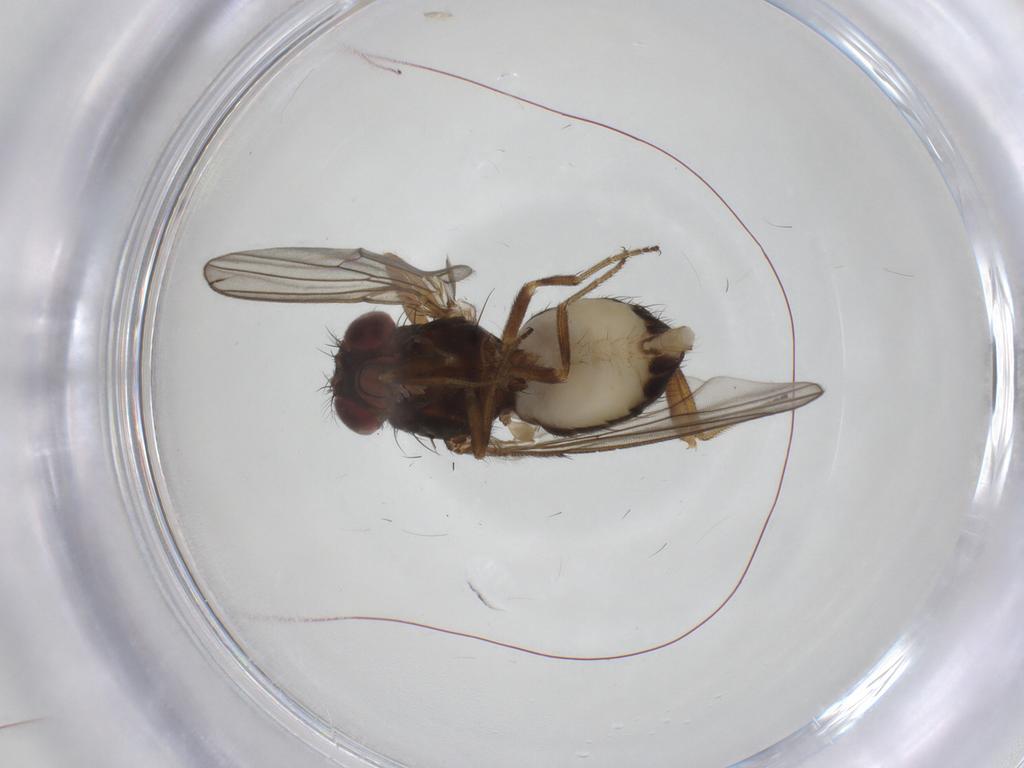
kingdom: Animalia
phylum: Arthropoda
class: Insecta
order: Diptera
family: Drosophilidae
